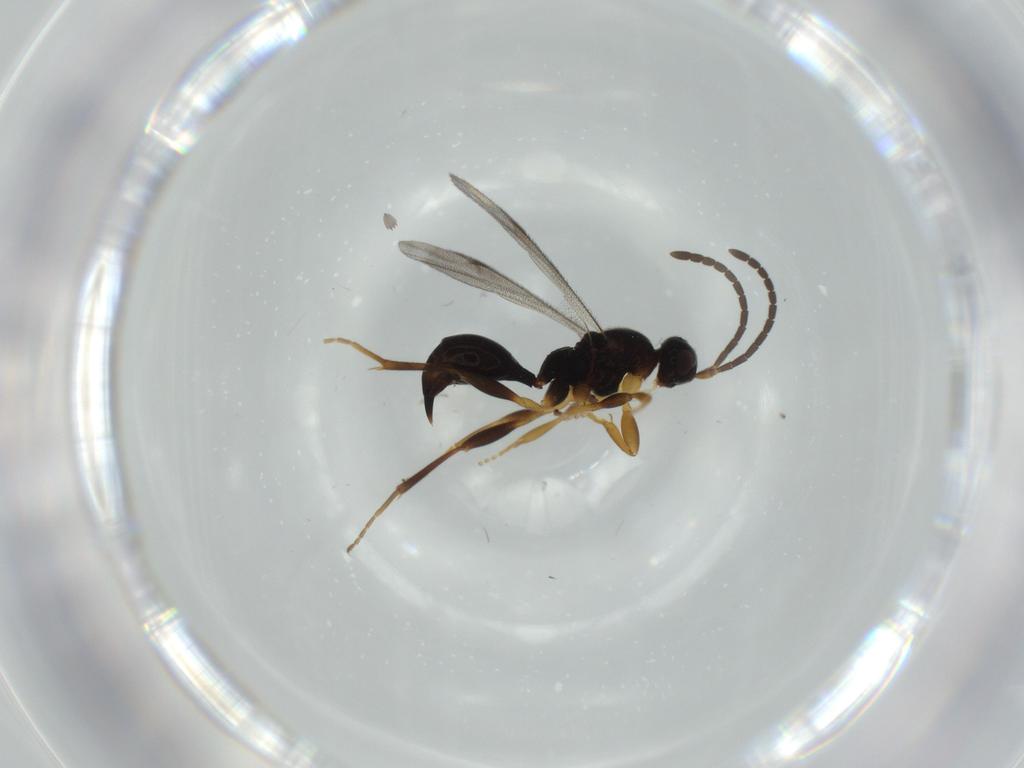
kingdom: Animalia
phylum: Arthropoda
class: Insecta
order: Hymenoptera
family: Proctotrupidae
